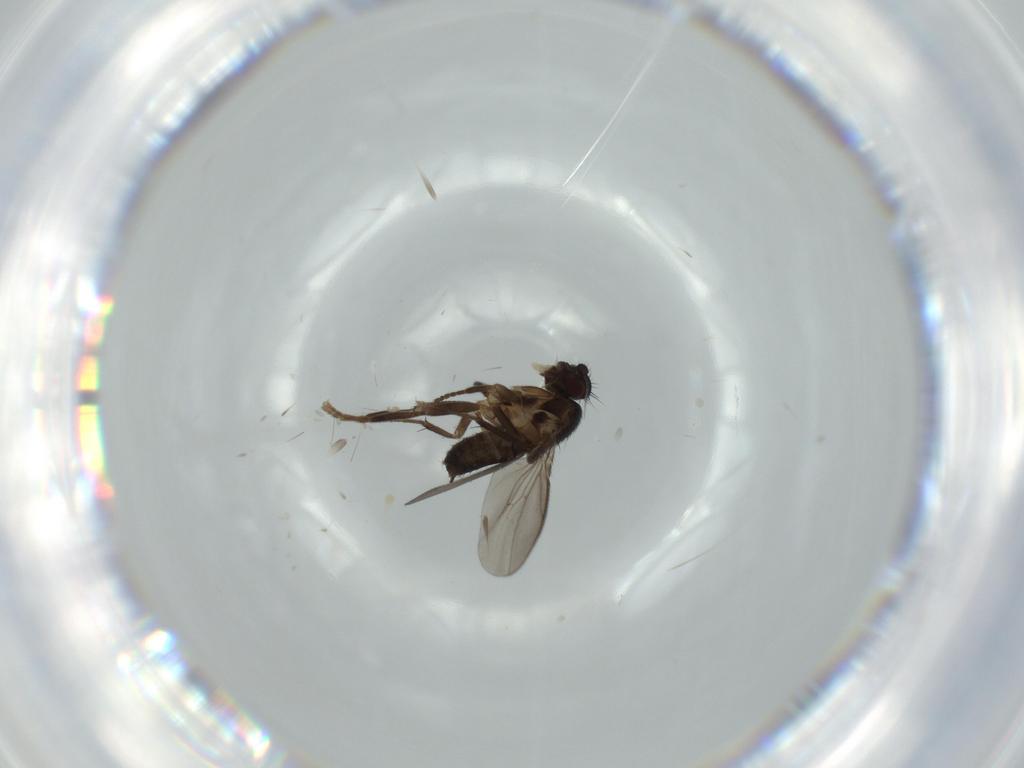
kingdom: Animalia
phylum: Arthropoda
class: Insecta
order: Diptera
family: Sphaeroceridae
